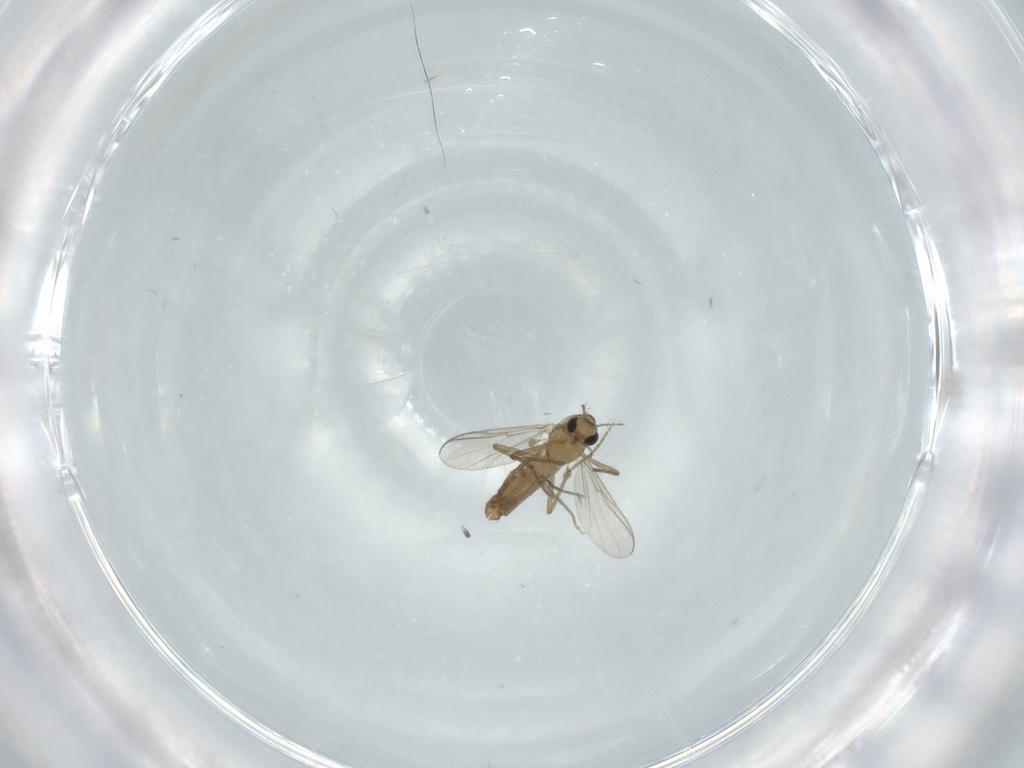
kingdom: Animalia
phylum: Arthropoda
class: Insecta
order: Diptera
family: Chironomidae
